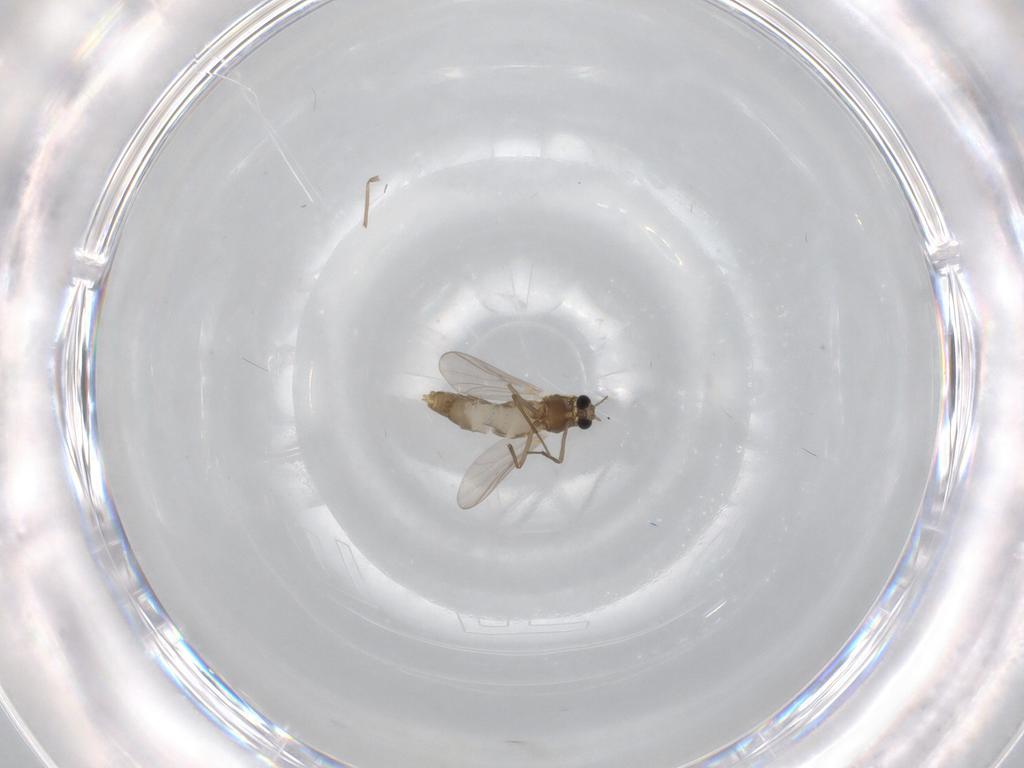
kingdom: Animalia
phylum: Arthropoda
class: Insecta
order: Diptera
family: Chironomidae
